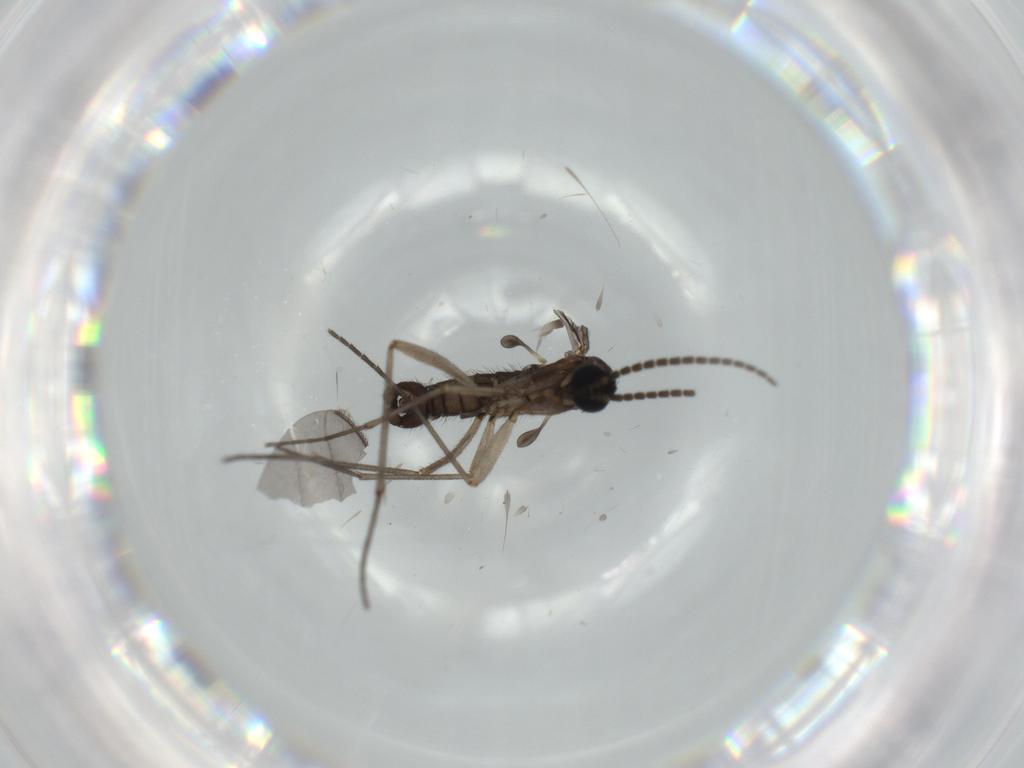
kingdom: Animalia
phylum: Arthropoda
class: Insecta
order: Diptera
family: Sciaridae
